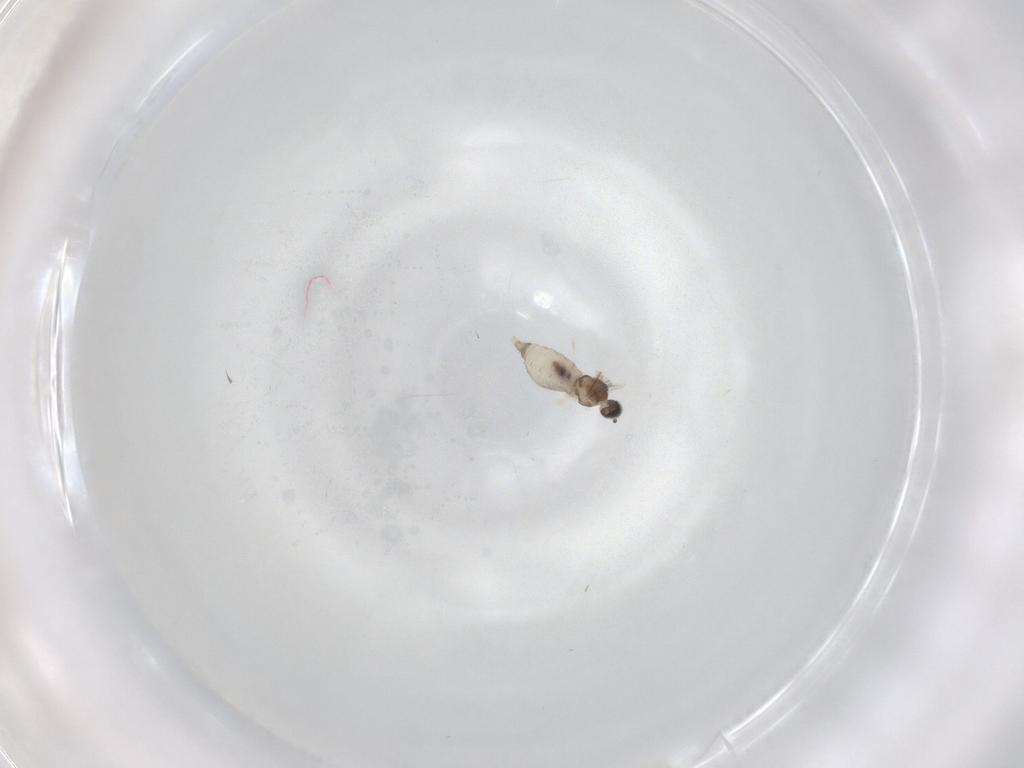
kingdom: Animalia
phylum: Arthropoda
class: Insecta
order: Diptera
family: Cecidomyiidae
